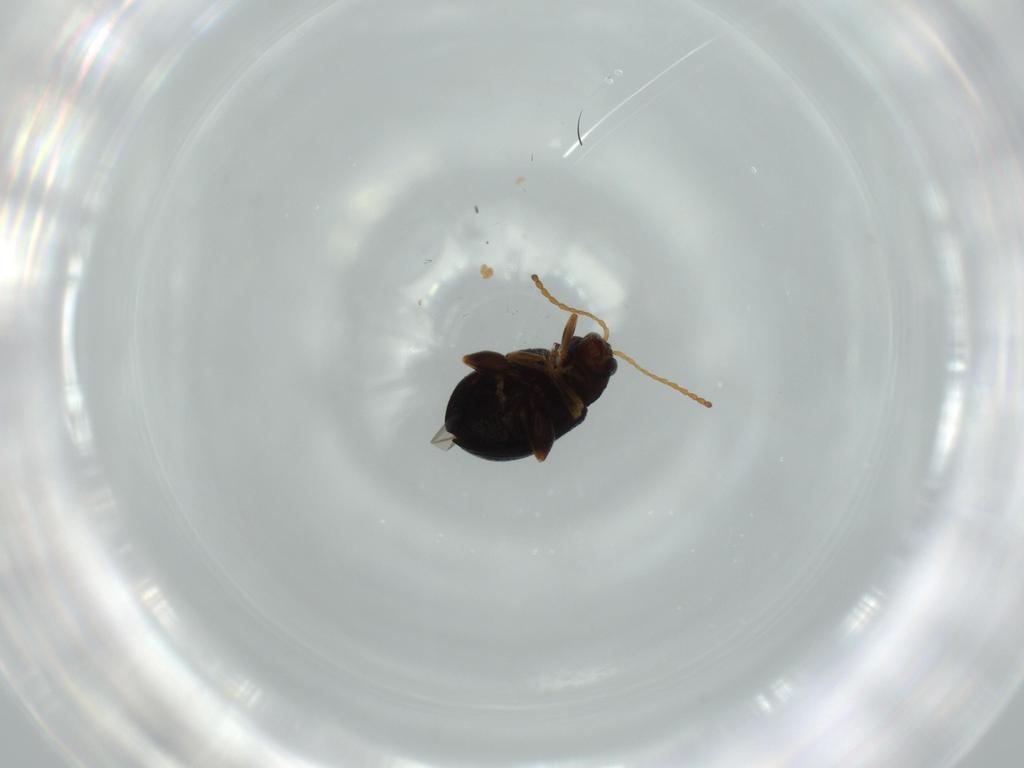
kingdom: Animalia
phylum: Arthropoda
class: Insecta
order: Coleoptera
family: Chrysomelidae
